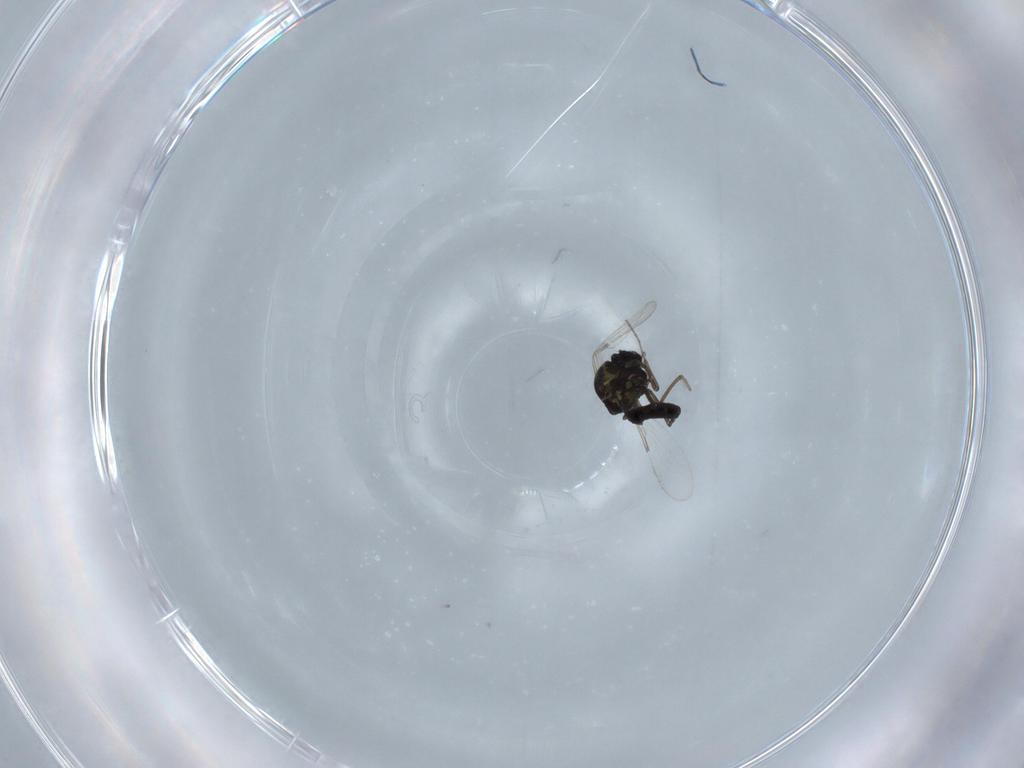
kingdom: Animalia
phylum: Arthropoda
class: Insecta
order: Diptera
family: Ceratopogonidae
